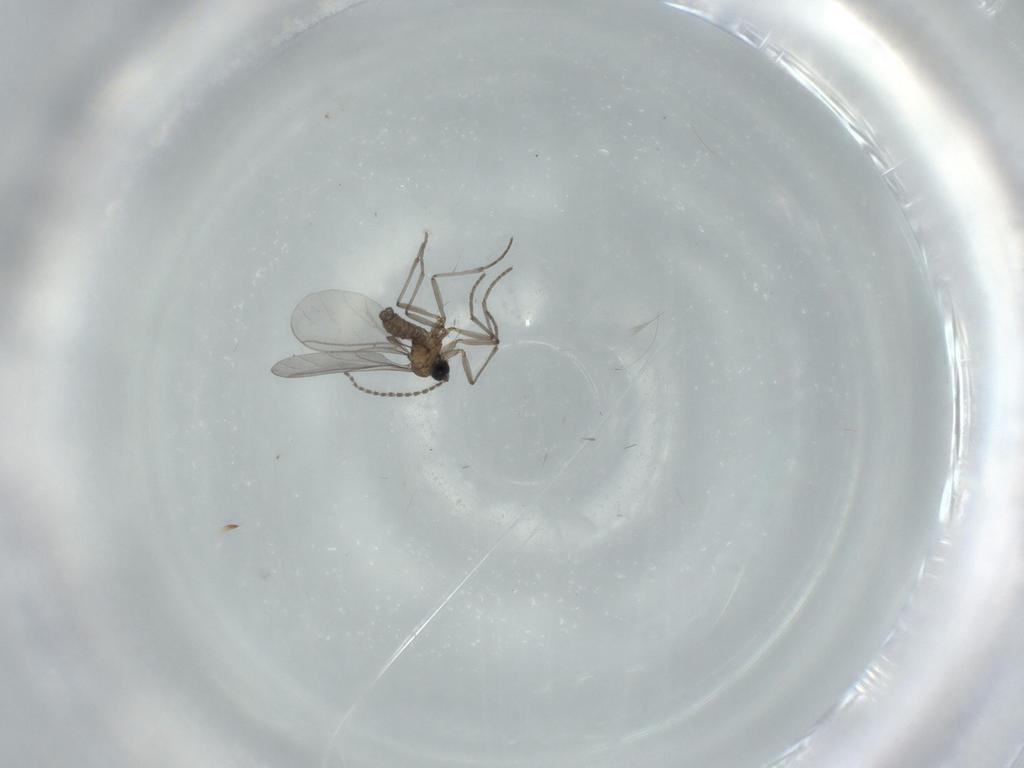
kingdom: Animalia
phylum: Arthropoda
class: Insecta
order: Diptera
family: Sciaridae
